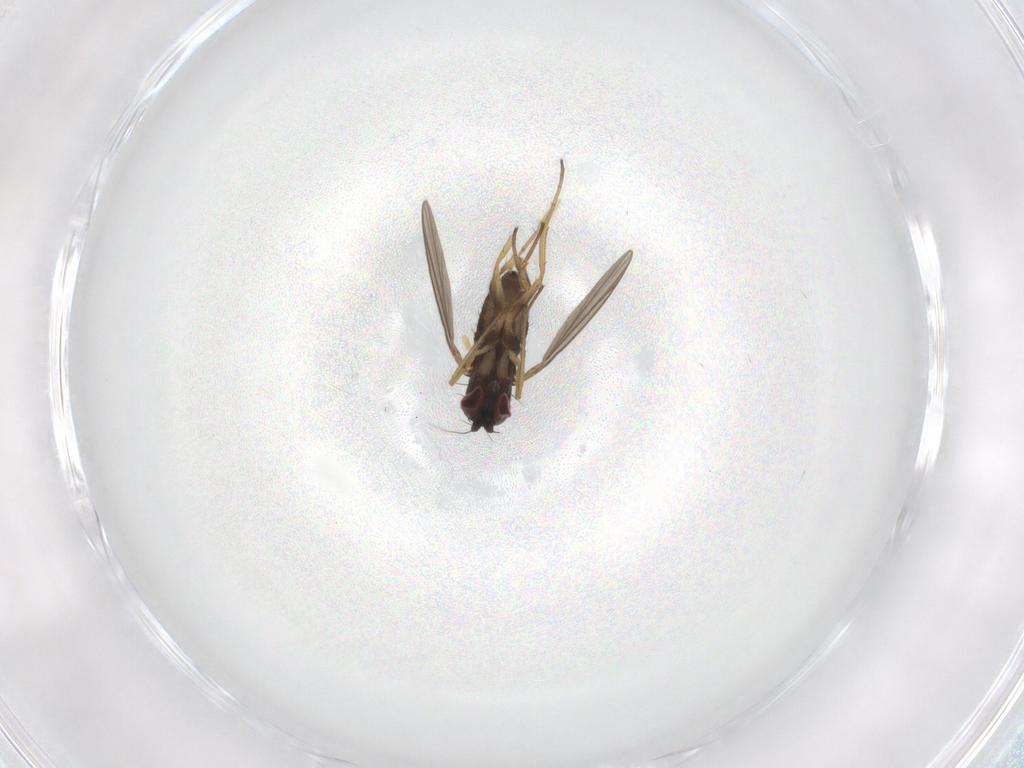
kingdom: Animalia
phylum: Arthropoda
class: Insecta
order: Diptera
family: Dolichopodidae
